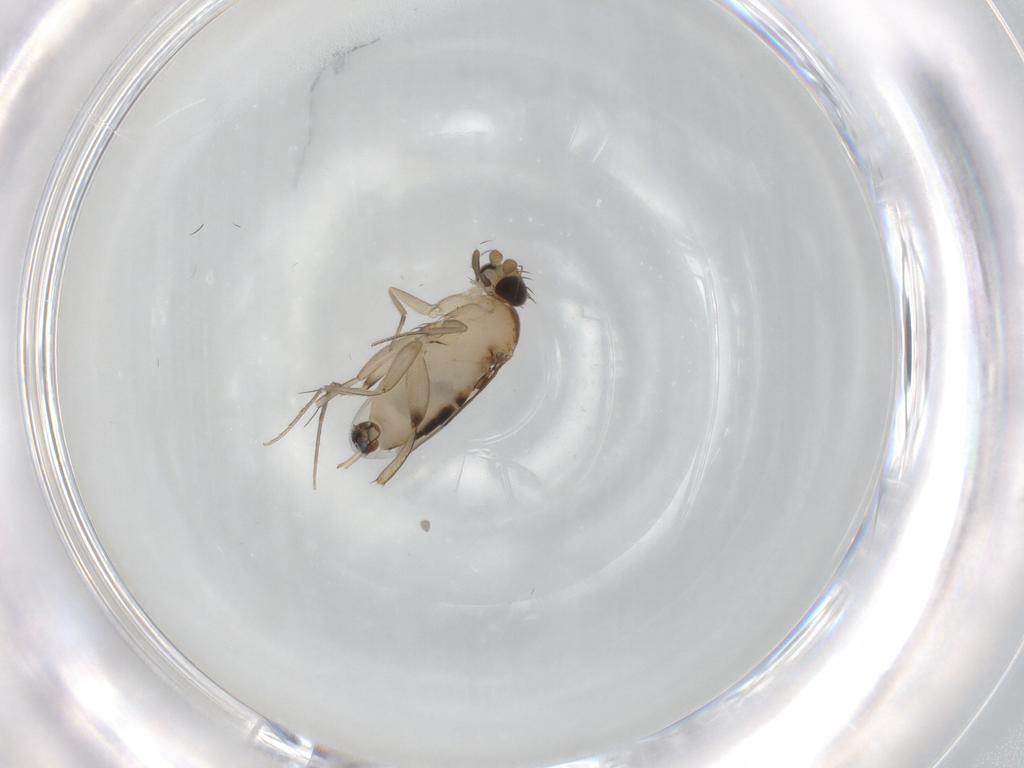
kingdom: Animalia
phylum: Arthropoda
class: Insecta
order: Diptera
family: Phoridae
